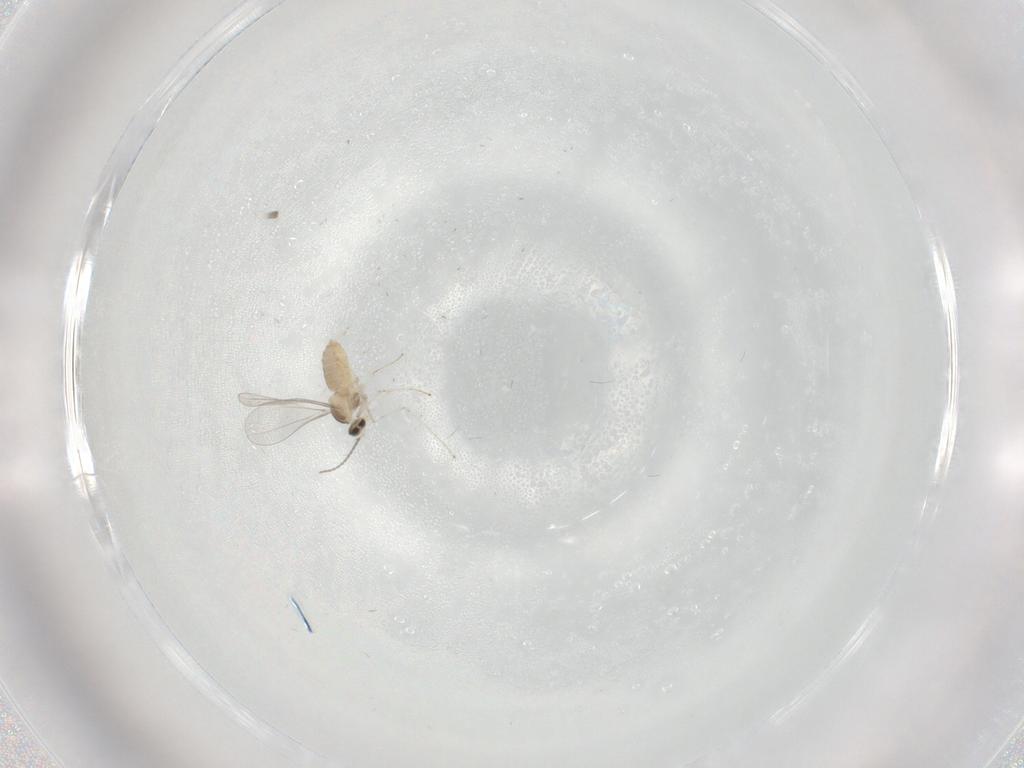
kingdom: Animalia
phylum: Arthropoda
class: Insecta
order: Diptera
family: Cecidomyiidae
